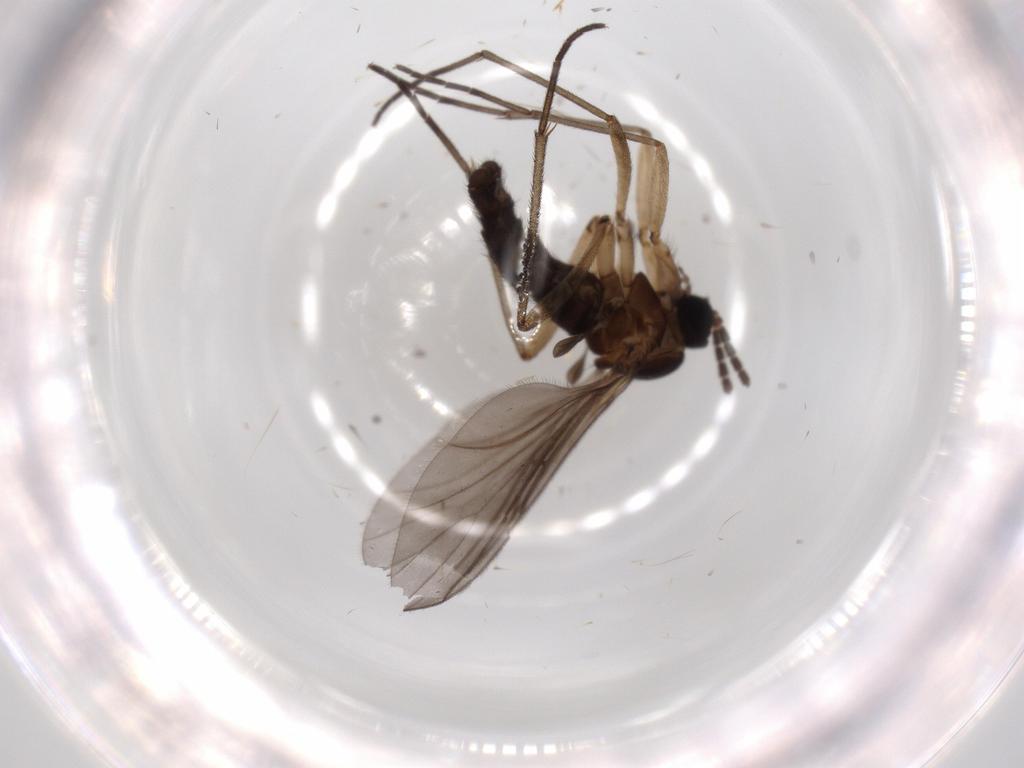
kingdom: Animalia
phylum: Arthropoda
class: Insecta
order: Diptera
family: Sciaridae
